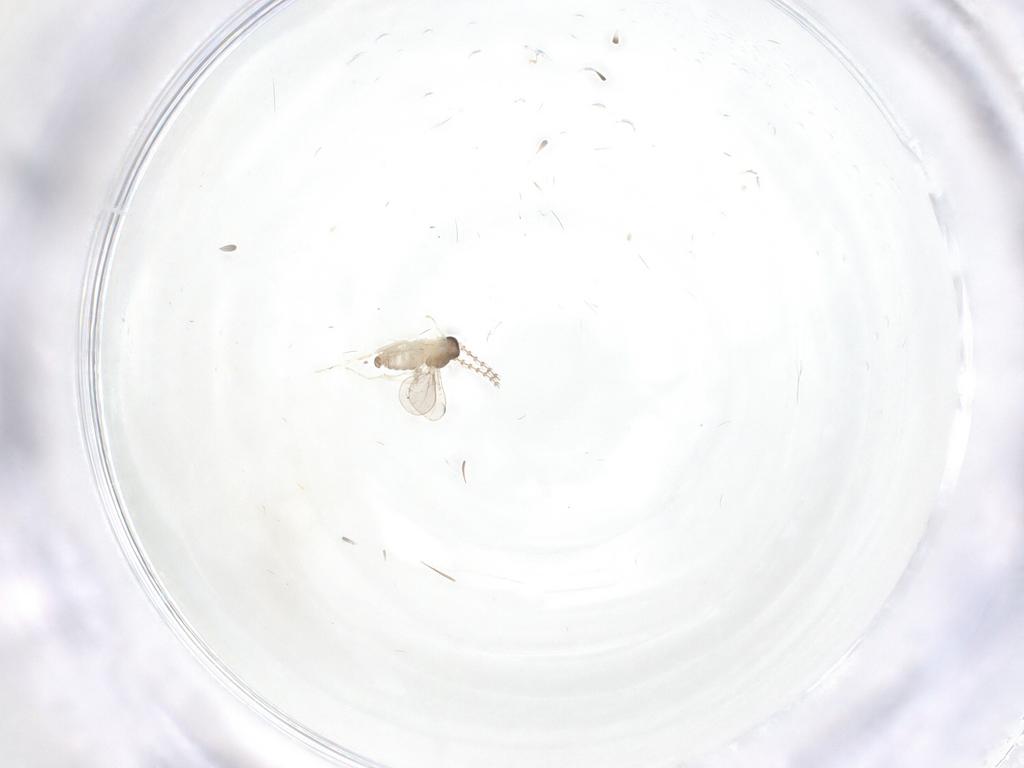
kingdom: Animalia
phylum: Arthropoda
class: Insecta
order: Diptera
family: Cecidomyiidae
